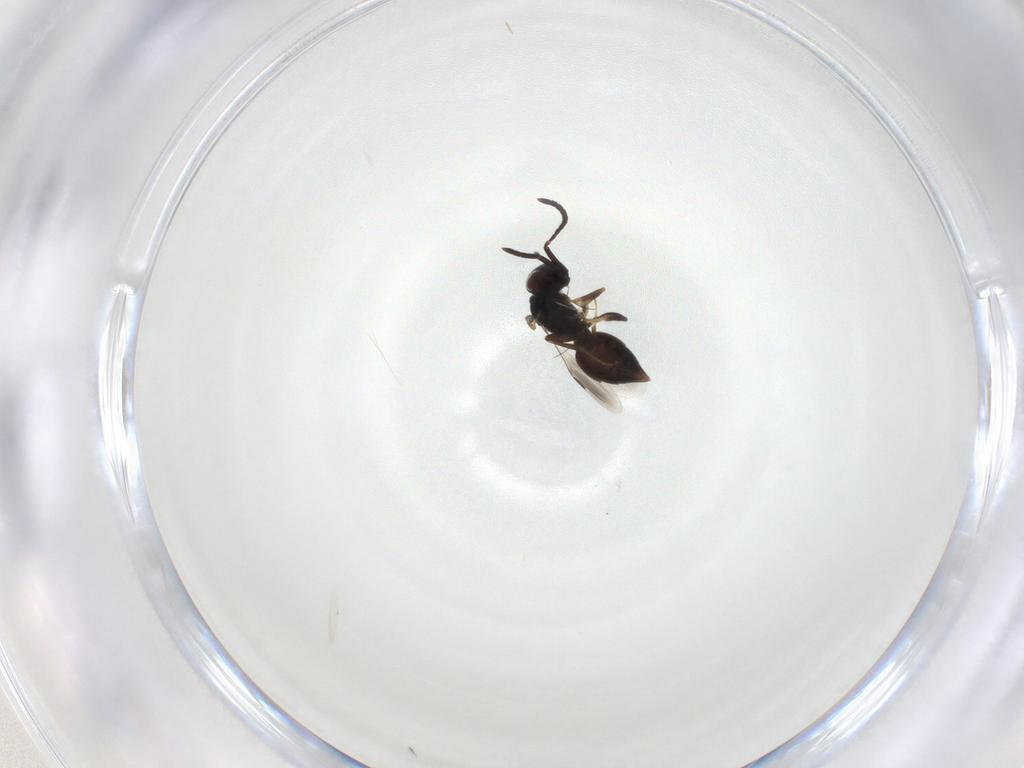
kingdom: Animalia
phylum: Arthropoda
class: Insecta
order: Hymenoptera
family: Megaspilidae
